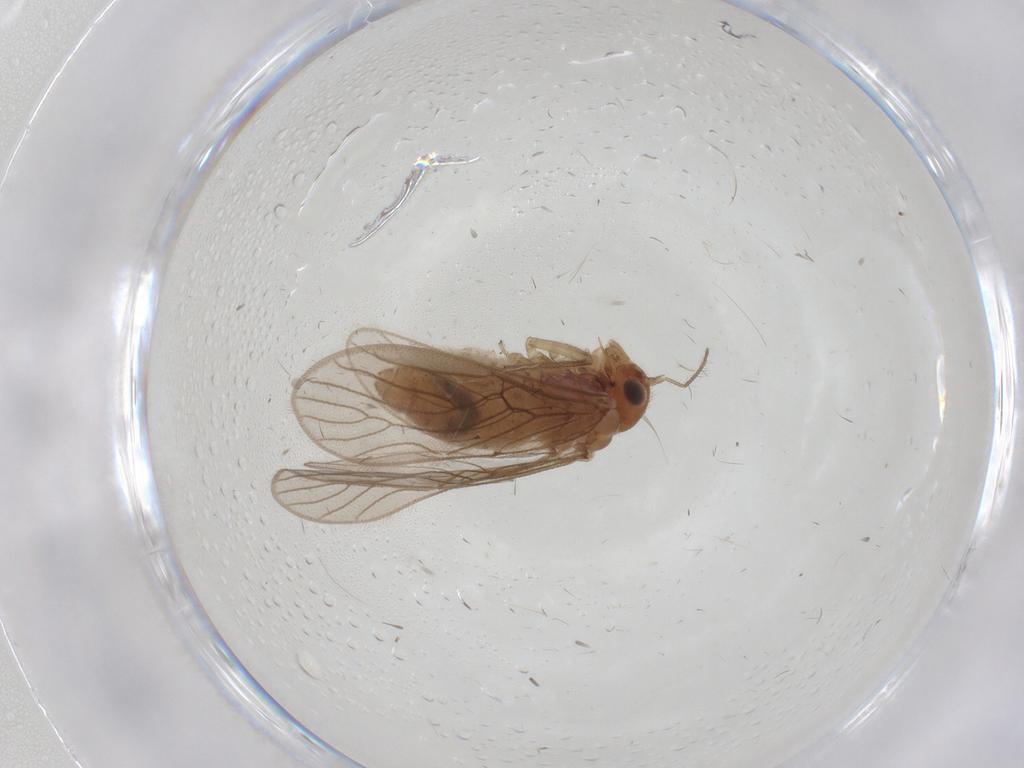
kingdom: Animalia
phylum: Arthropoda
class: Insecta
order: Psocodea
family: Epipsocidae
